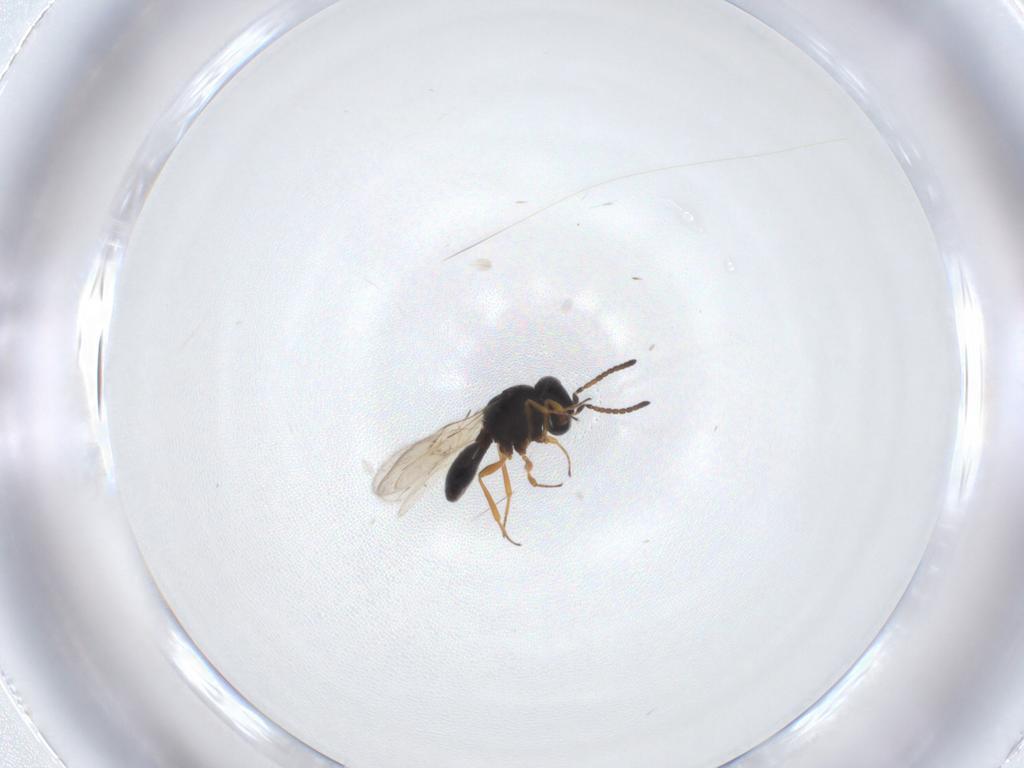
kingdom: Animalia
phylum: Arthropoda
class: Insecta
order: Hymenoptera
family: Scelionidae
